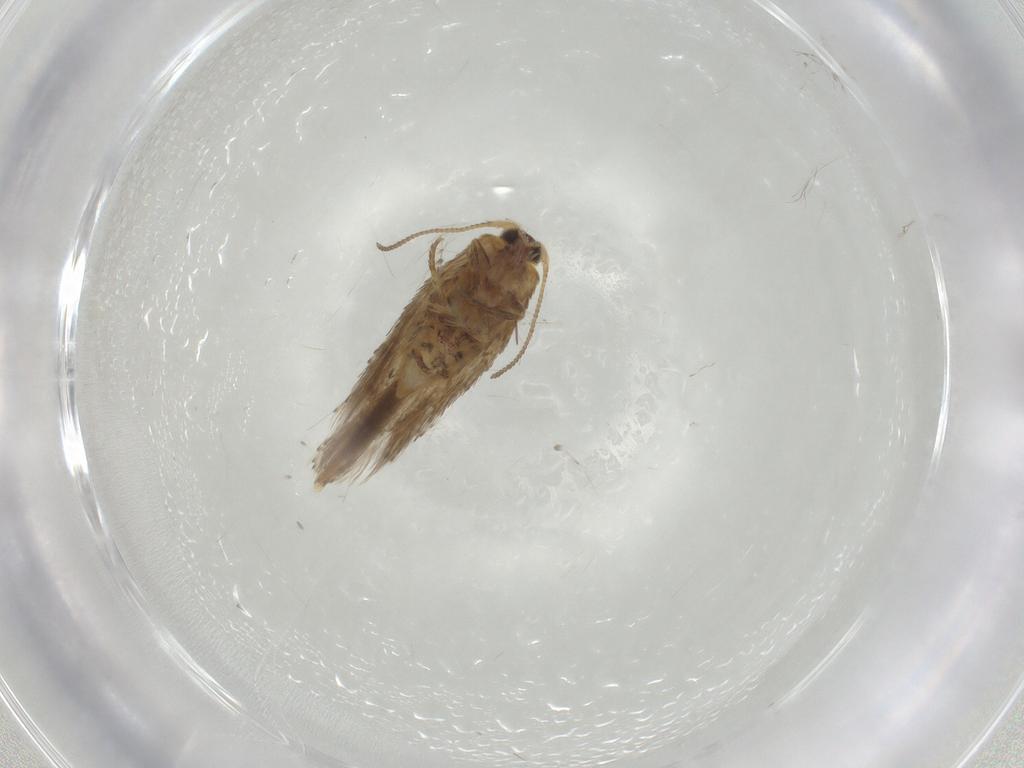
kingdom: Animalia
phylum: Arthropoda
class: Insecta
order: Lepidoptera
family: Nepticulidae
